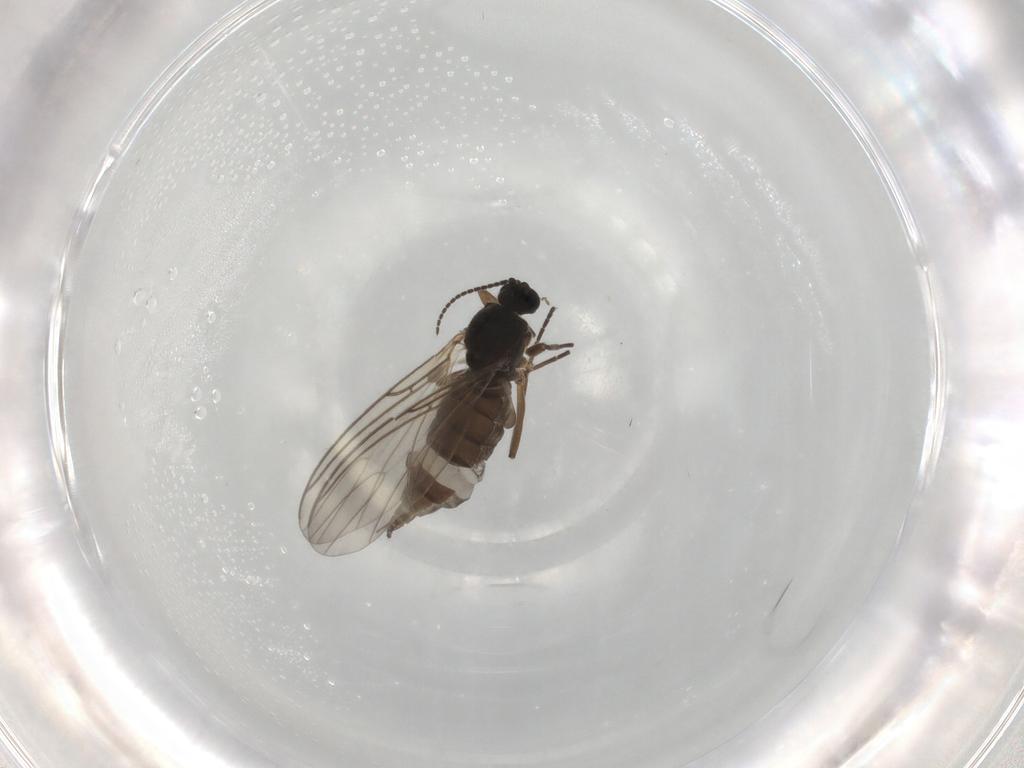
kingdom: Animalia
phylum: Arthropoda
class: Insecta
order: Diptera
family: Sciaridae
